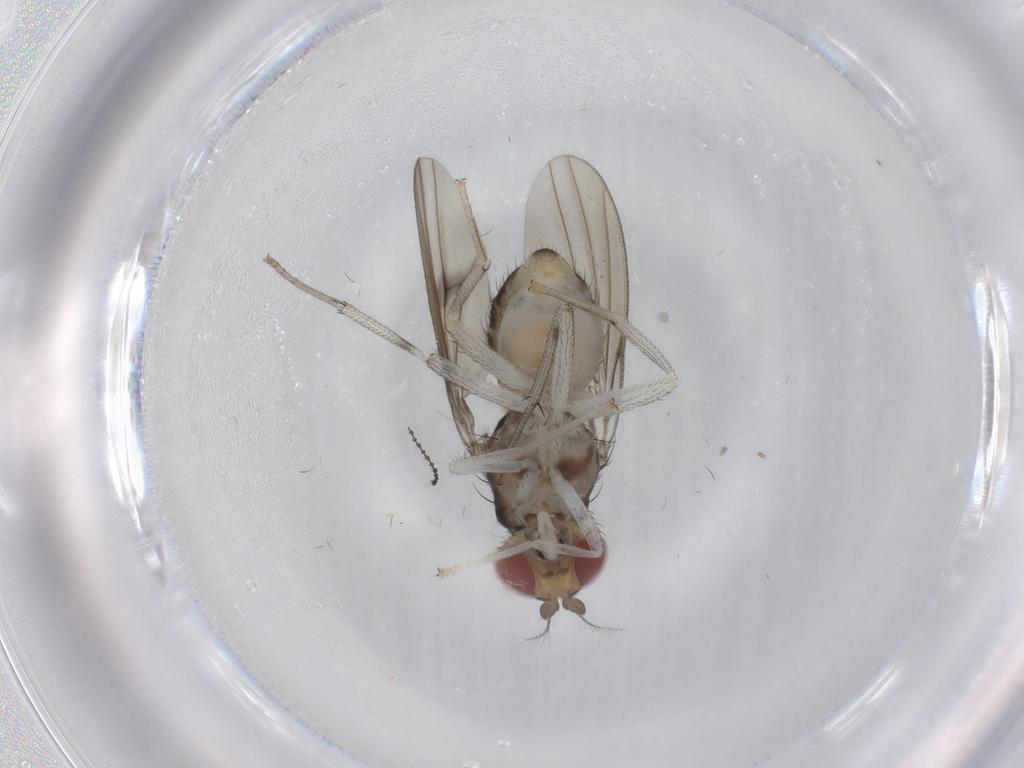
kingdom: Animalia
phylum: Arthropoda
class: Insecta
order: Diptera
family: Cecidomyiidae
